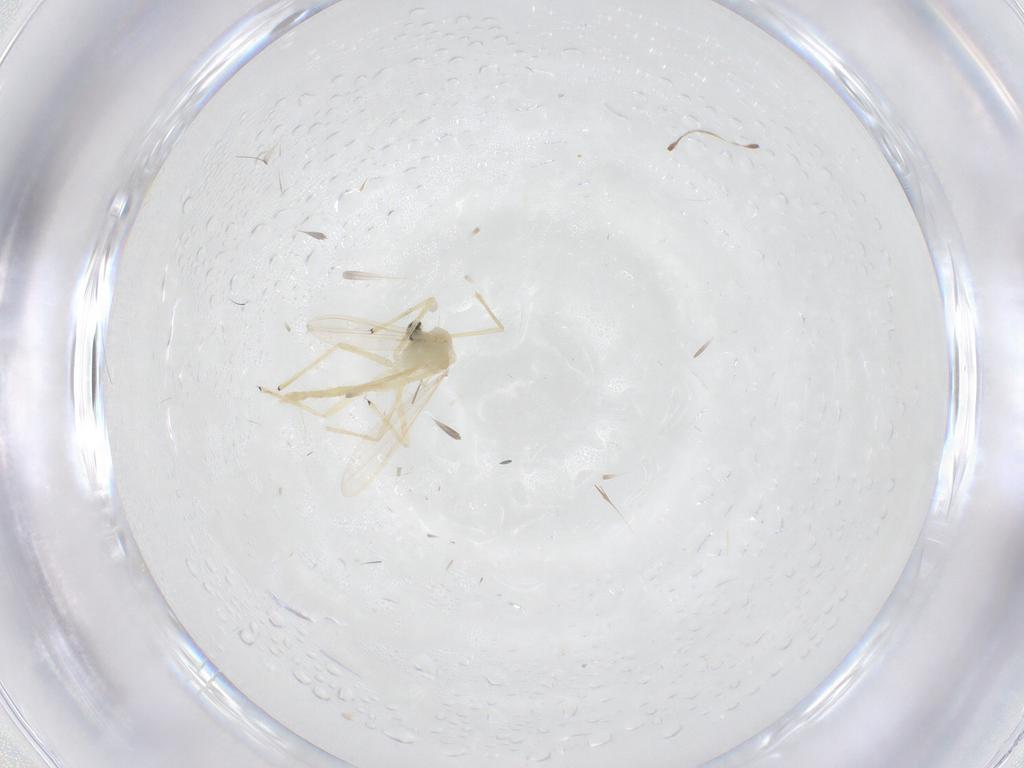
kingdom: Animalia
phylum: Arthropoda
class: Insecta
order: Diptera
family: Chironomidae
